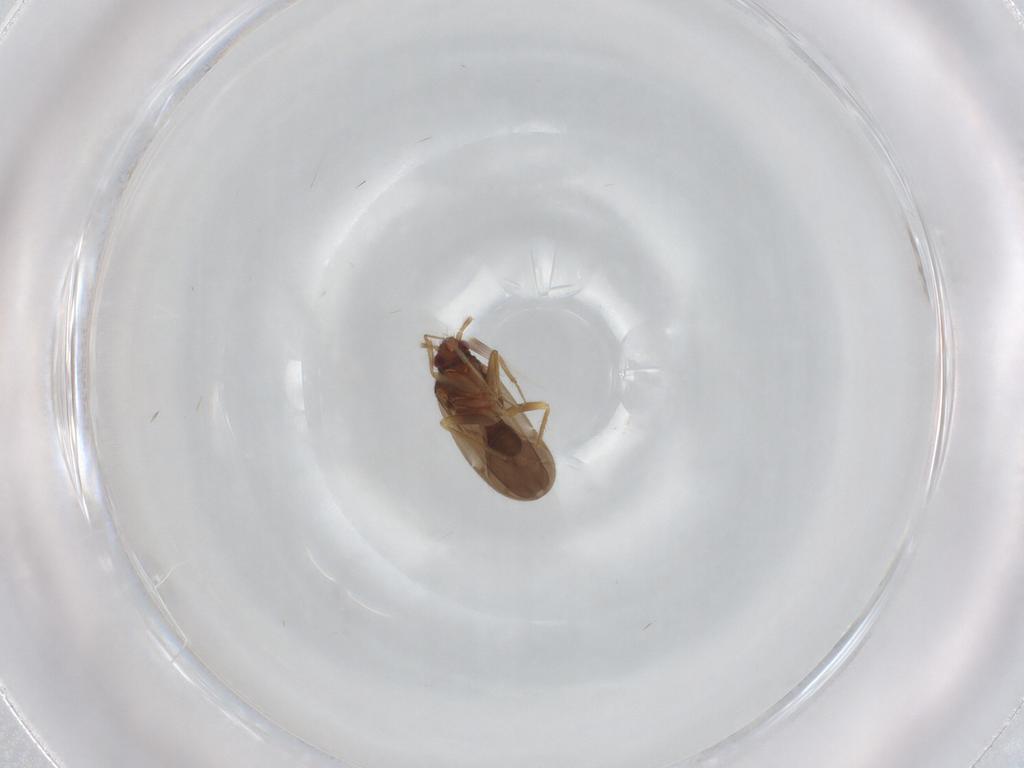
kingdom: Animalia
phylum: Arthropoda
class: Insecta
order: Hemiptera
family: Ceratocombidae
